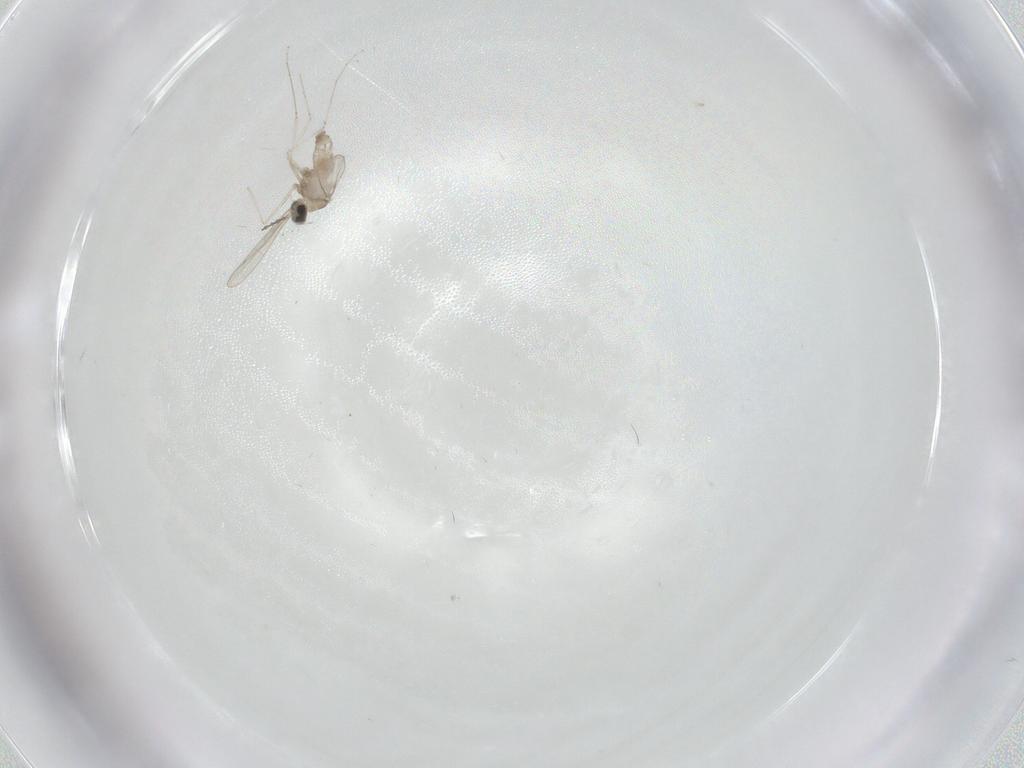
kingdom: Animalia
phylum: Arthropoda
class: Insecta
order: Diptera
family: Cecidomyiidae
